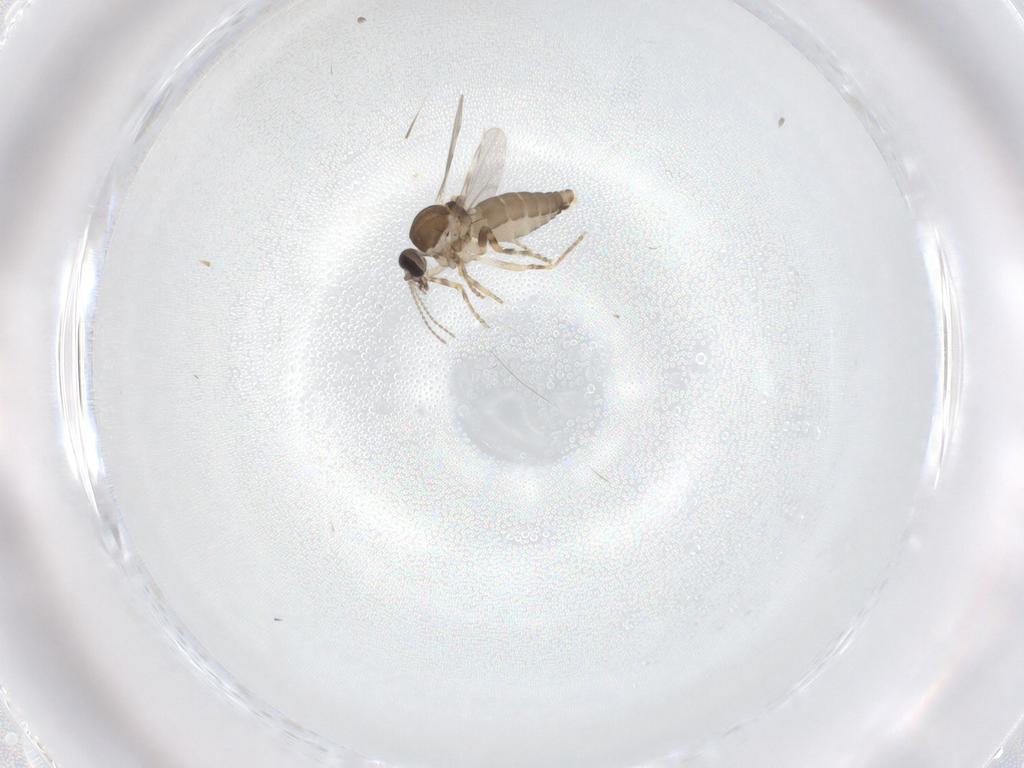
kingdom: Animalia
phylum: Arthropoda
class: Insecta
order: Diptera
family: Ceratopogonidae
